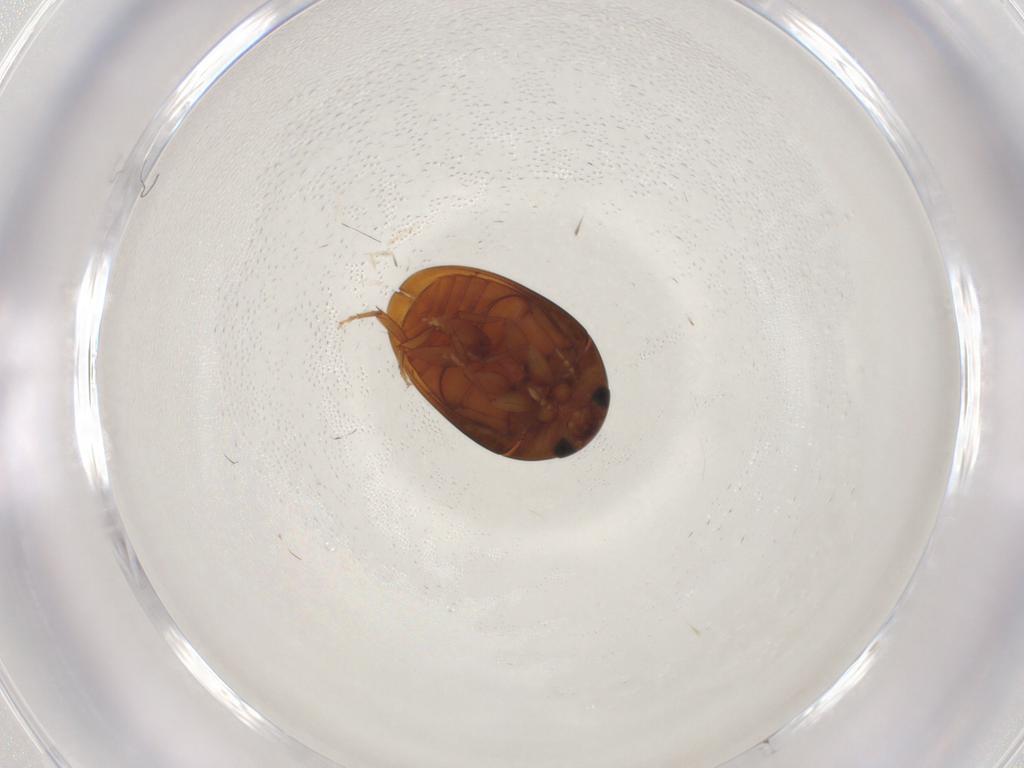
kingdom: Animalia
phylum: Arthropoda
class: Insecta
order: Coleoptera
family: Phalacridae
